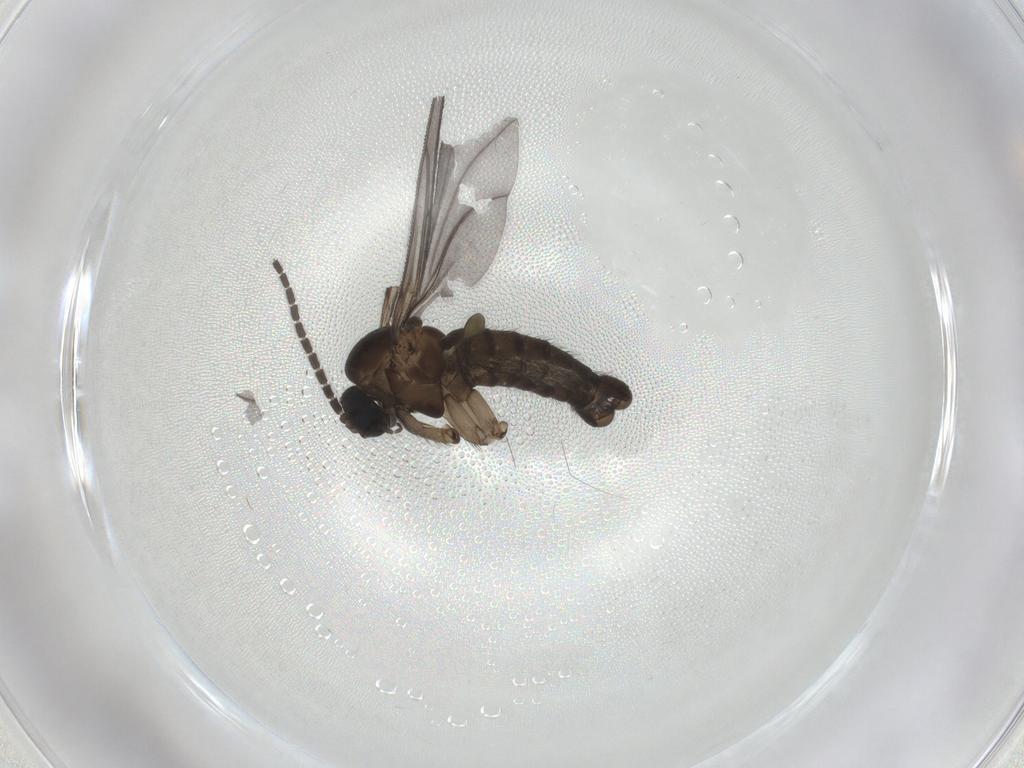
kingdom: Animalia
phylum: Arthropoda
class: Insecta
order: Diptera
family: Sciaridae
